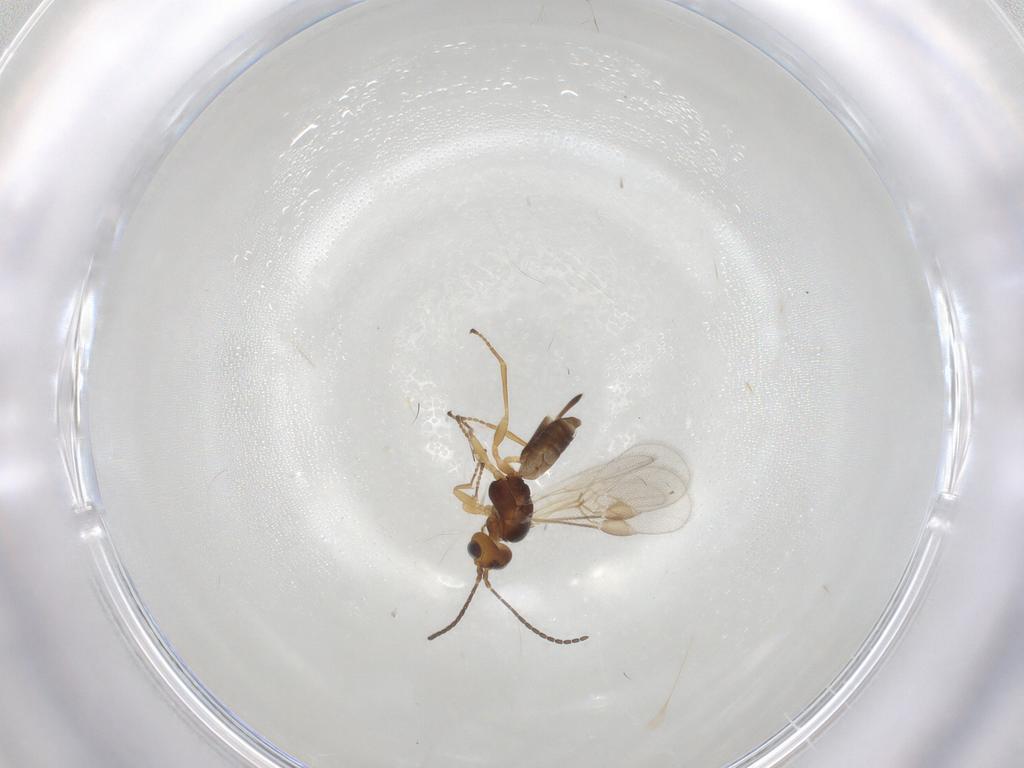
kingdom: Animalia
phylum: Arthropoda
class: Insecta
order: Hymenoptera
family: Braconidae
